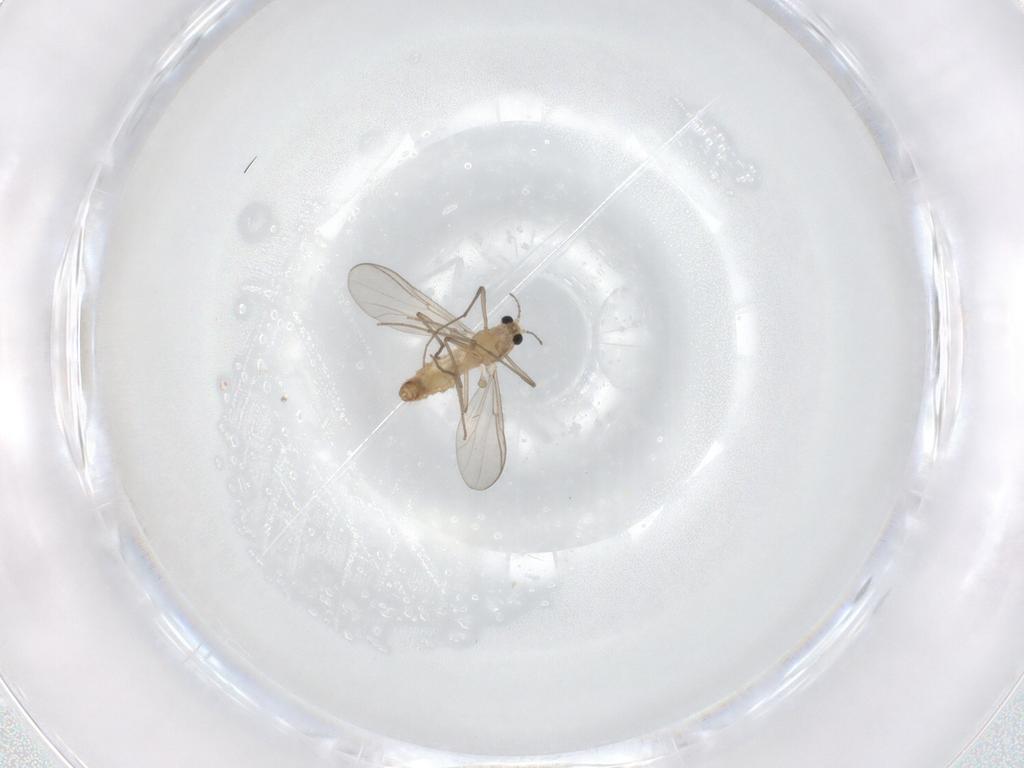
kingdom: Animalia
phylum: Arthropoda
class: Insecta
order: Diptera
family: Chironomidae
